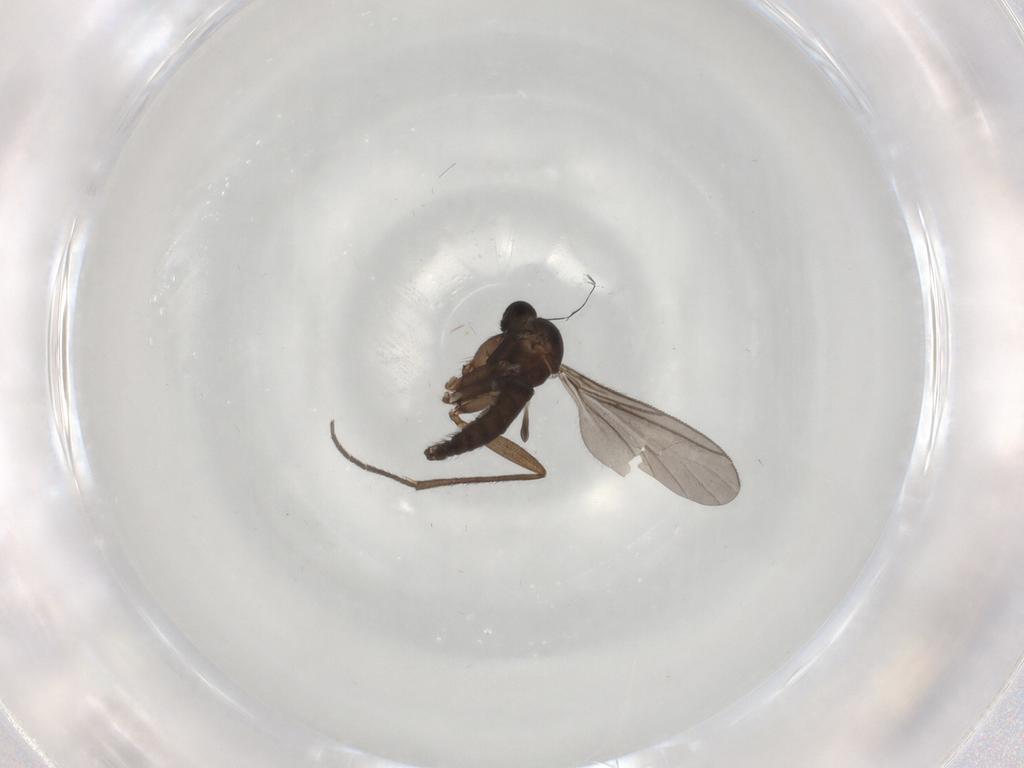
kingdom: Animalia
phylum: Arthropoda
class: Insecta
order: Diptera
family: Sciaridae
